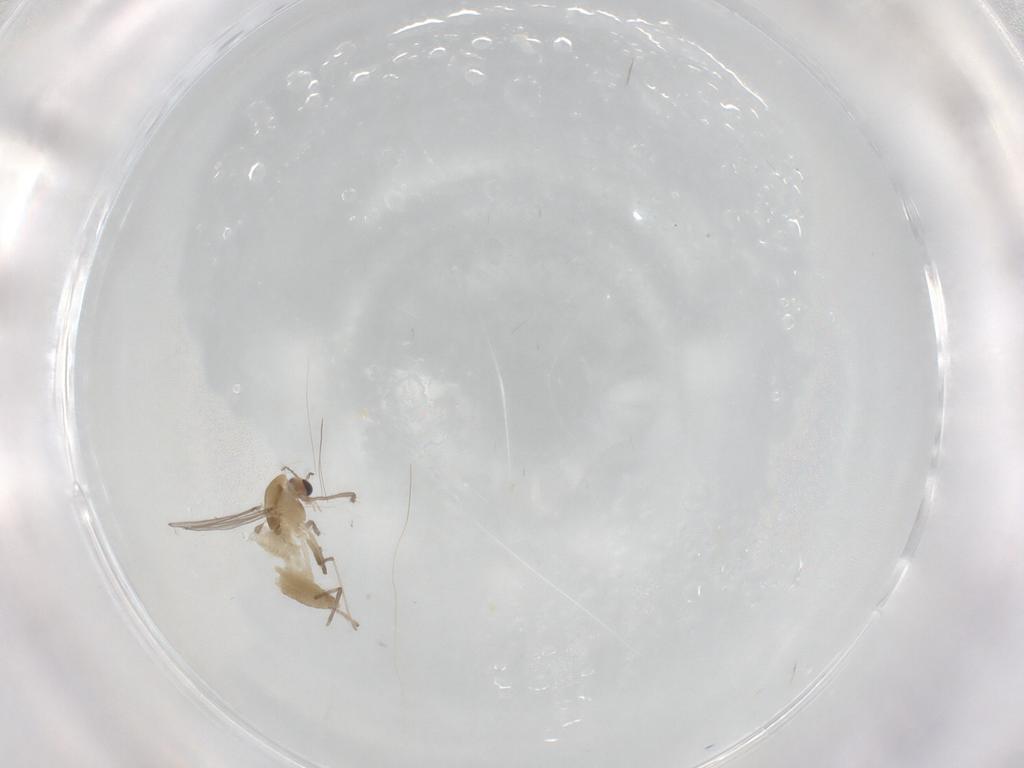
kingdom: Animalia
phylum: Arthropoda
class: Insecta
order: Diptera
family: Chironomidae
